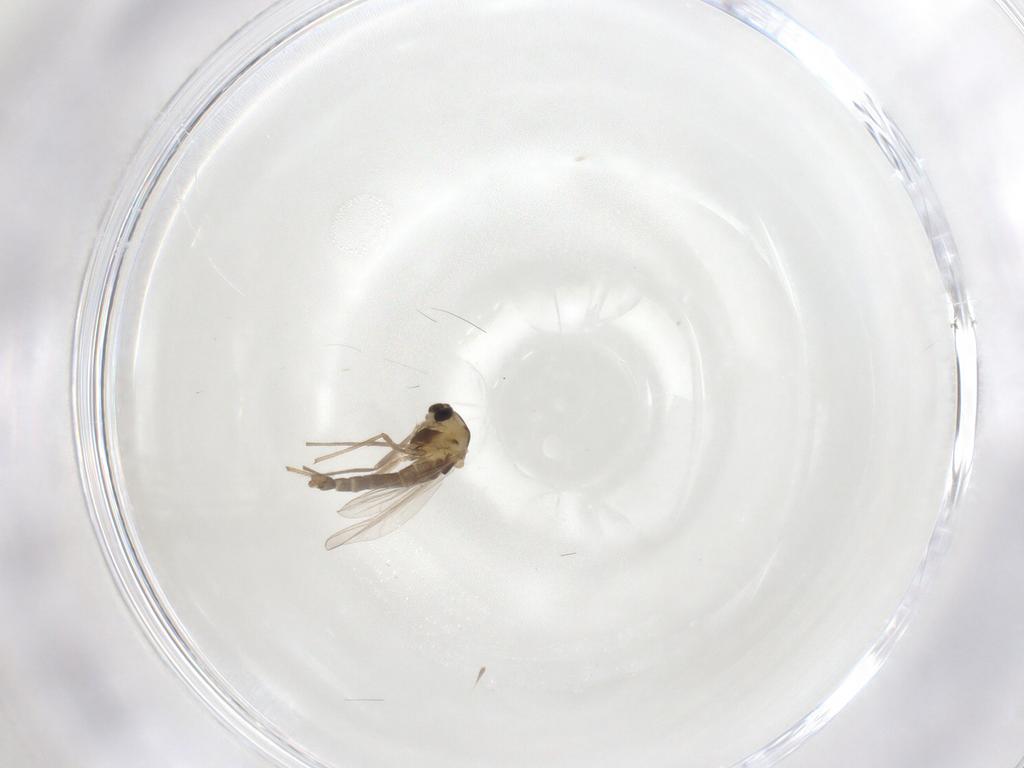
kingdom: Animalia
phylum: Arthropoda
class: Insecta
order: Diptera
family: Chironomidae
